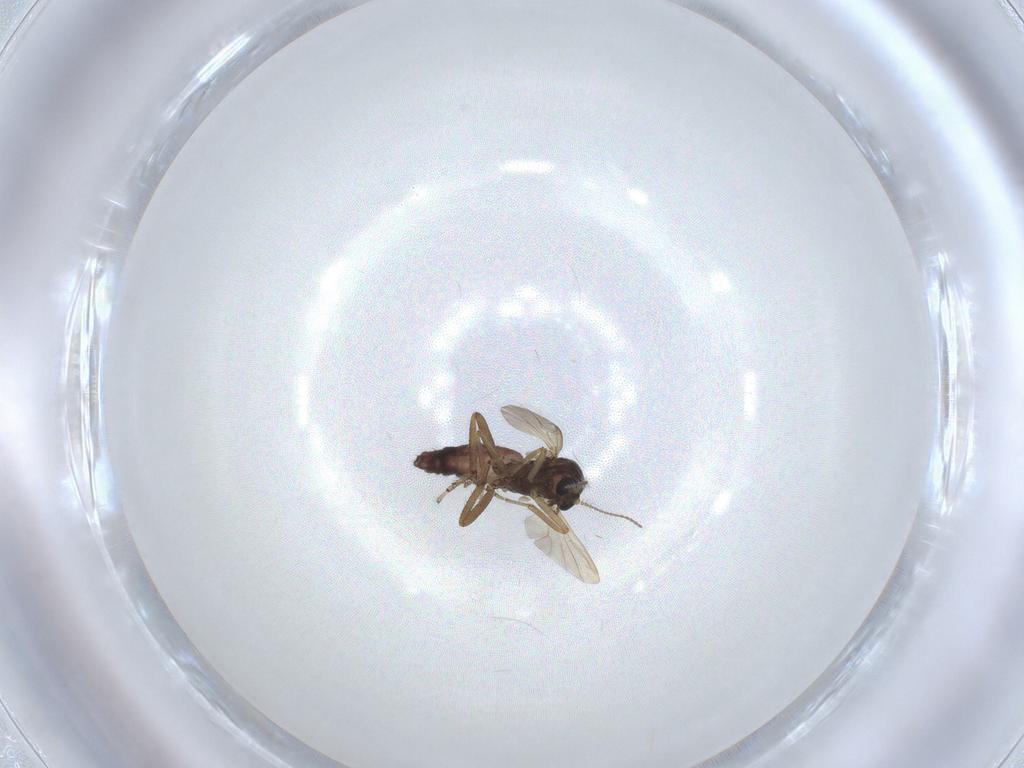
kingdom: Animalia
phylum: Arthropoda
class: Insecta
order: Diptera
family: Ceratopogonidae
